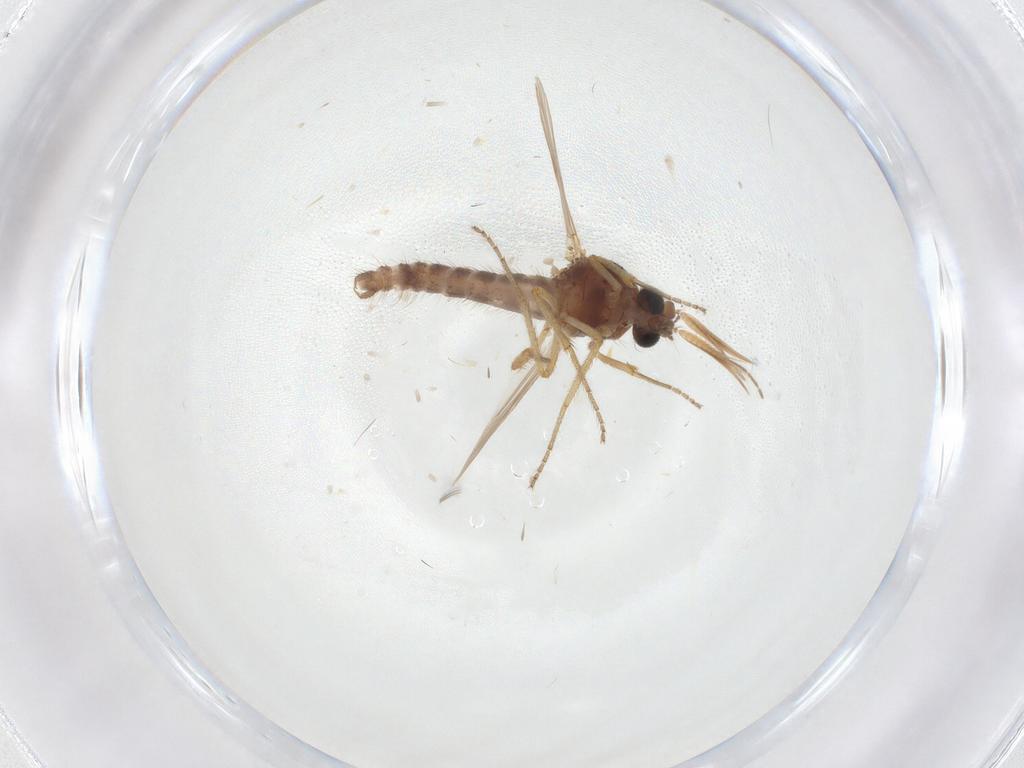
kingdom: Animalia
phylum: Arthropoda
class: Insecta
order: Diptera
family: Ceratopogonidae
